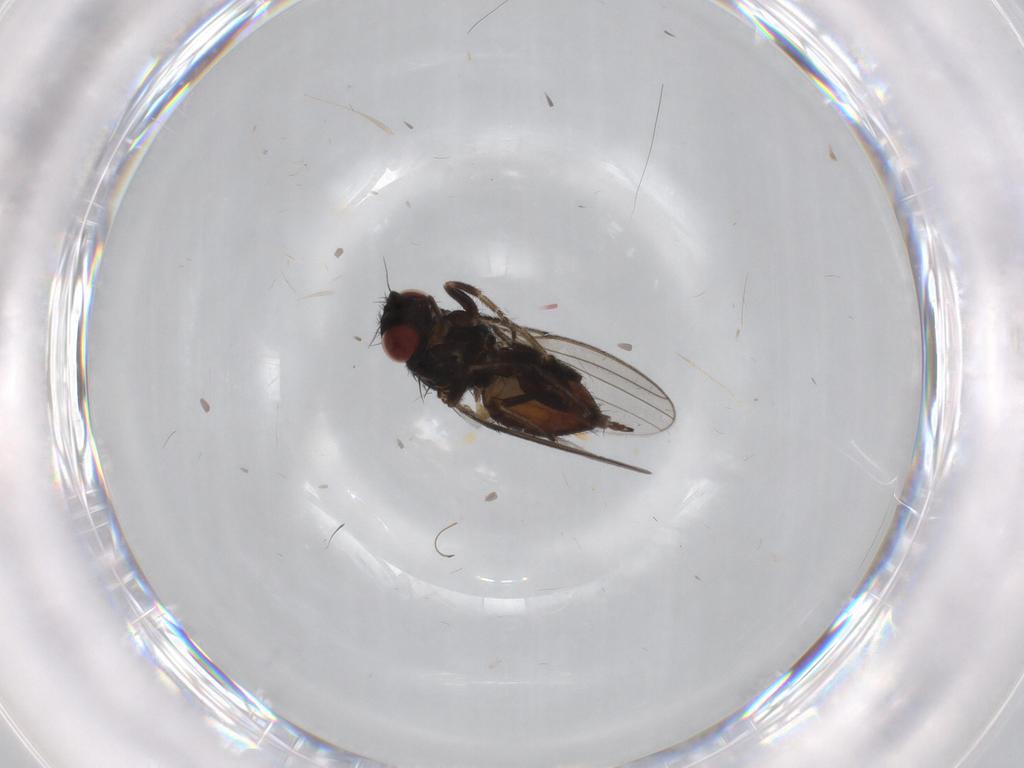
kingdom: Animalia
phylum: Arthropoda
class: Insecta
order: Diptera
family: Milichiidae
